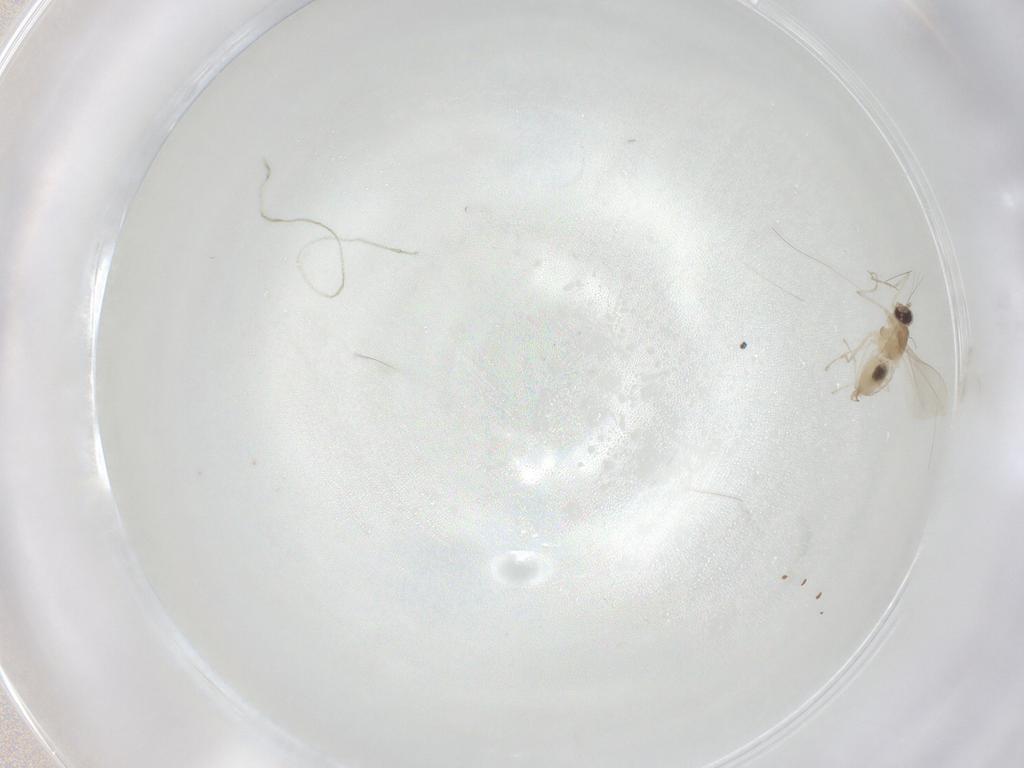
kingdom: Animalia
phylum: Arthropoda
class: Insecta
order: Diptera
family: Cecidomyiidae
